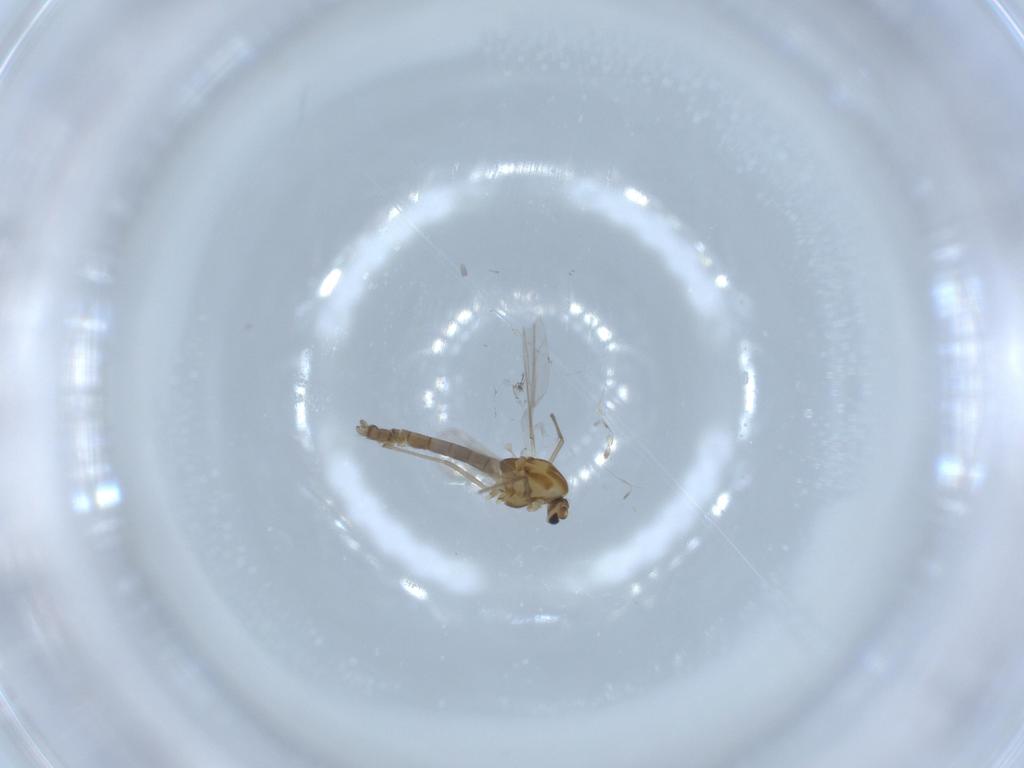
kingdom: Animalia
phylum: Arthropoda
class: Insecta
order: Diptera
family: Chironomidae
